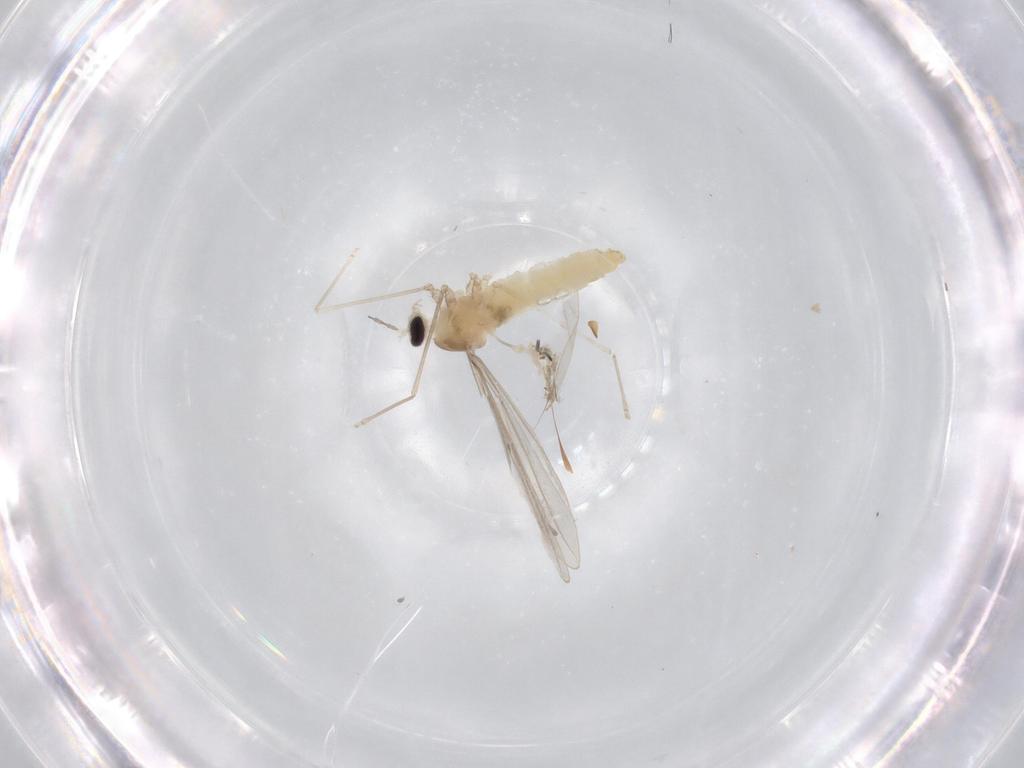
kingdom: Animalia
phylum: Arthropoda
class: Insecta
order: Diptera
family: Cecidomyiidae
